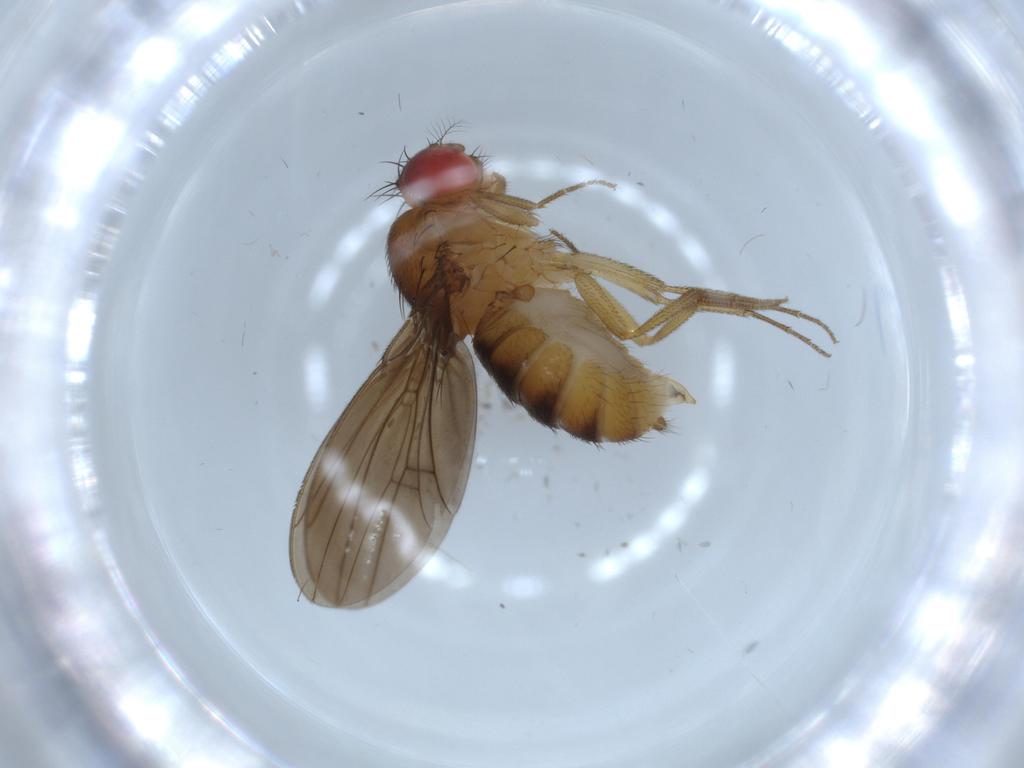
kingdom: Animalia
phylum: Arthropoda
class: Insecta
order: Diptera
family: Drosophilidae
